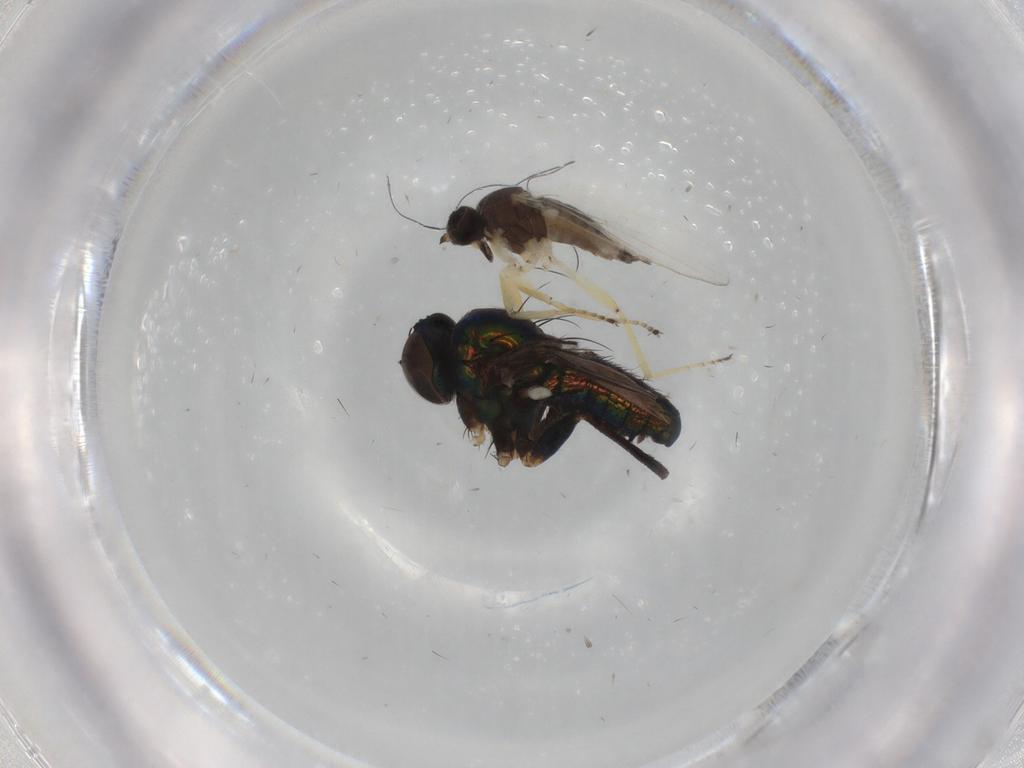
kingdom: Animalia
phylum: Arthropoda
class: Insecta
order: Diptera
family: Dolichopodidae
